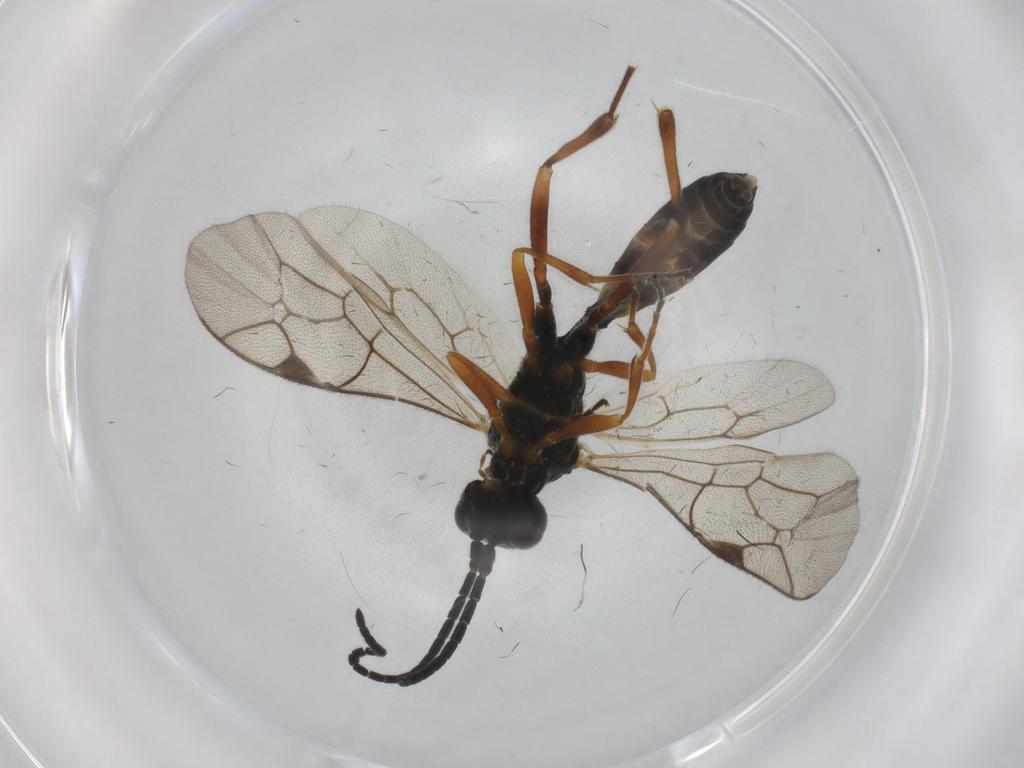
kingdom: Animalia
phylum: Arthropoda
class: Insecta
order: Hymenoptera
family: Ichneumonidae
